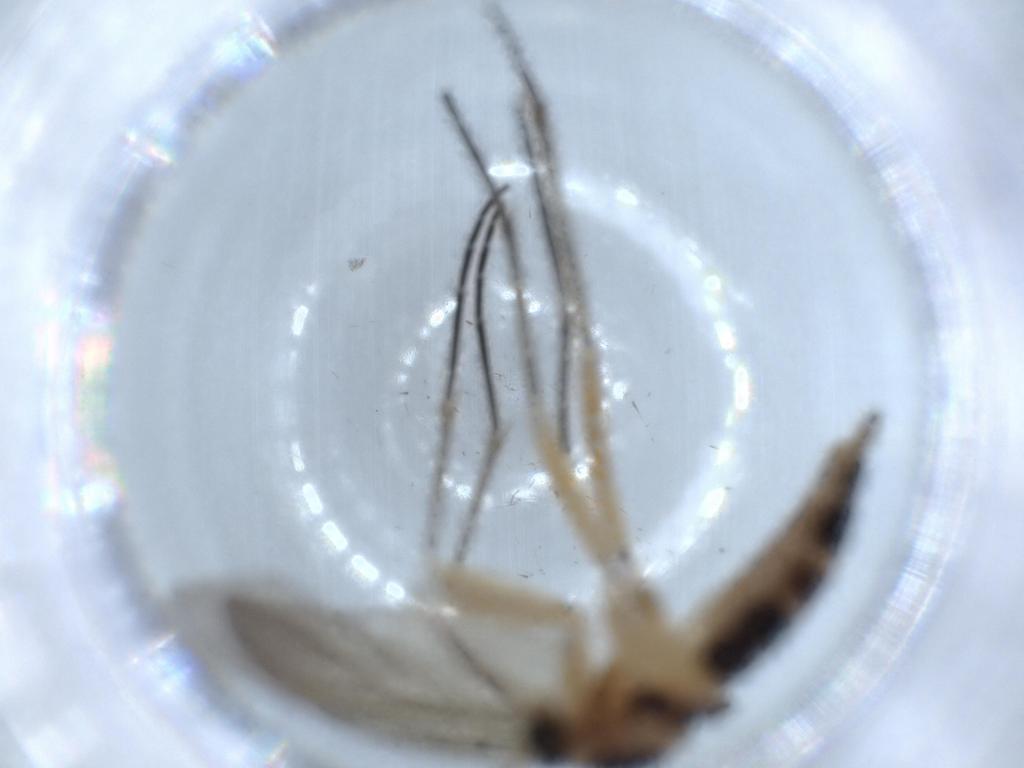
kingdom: Animalia
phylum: Arthropoda
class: Insecta
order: Diptera
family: Sciaridae
